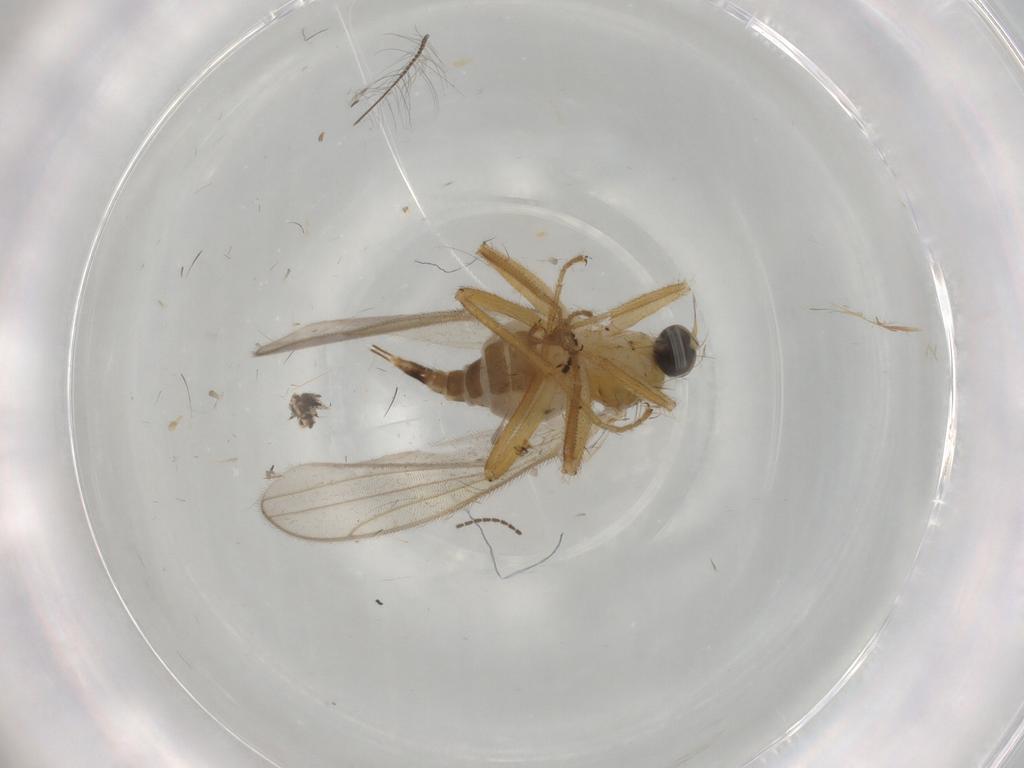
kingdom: Animalia
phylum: Arthropoda
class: Insecta
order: Diptera
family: Hybotidae
